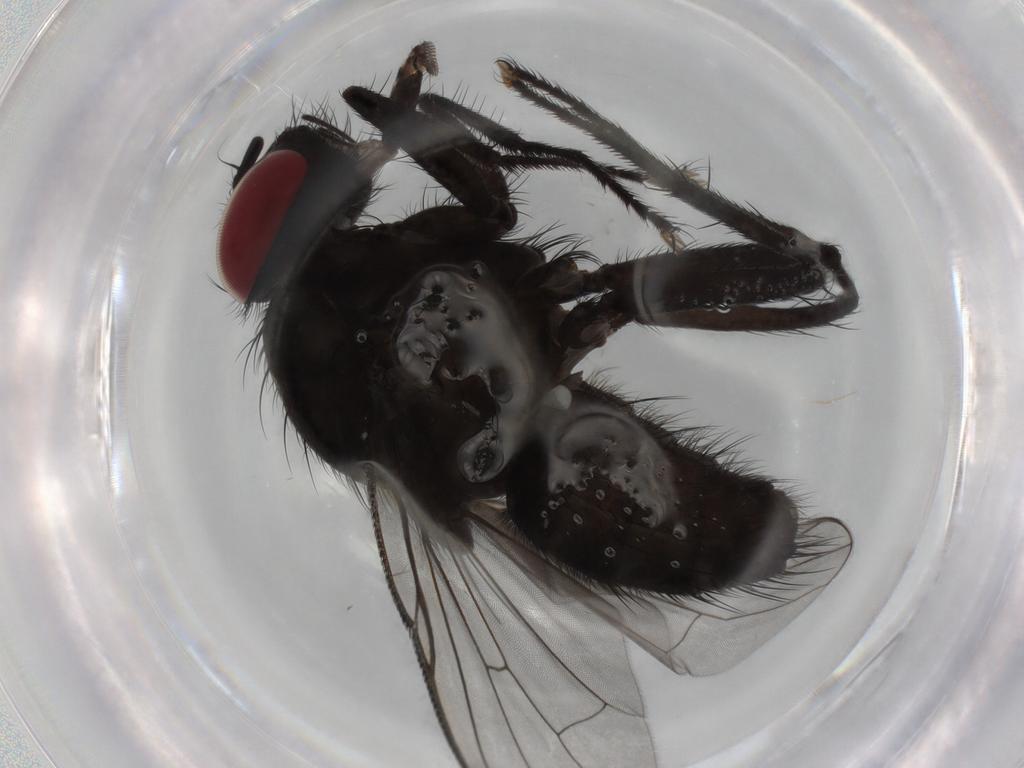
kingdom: Animalia
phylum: Arthropoda
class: Insecta
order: Diptera
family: Muscidae
